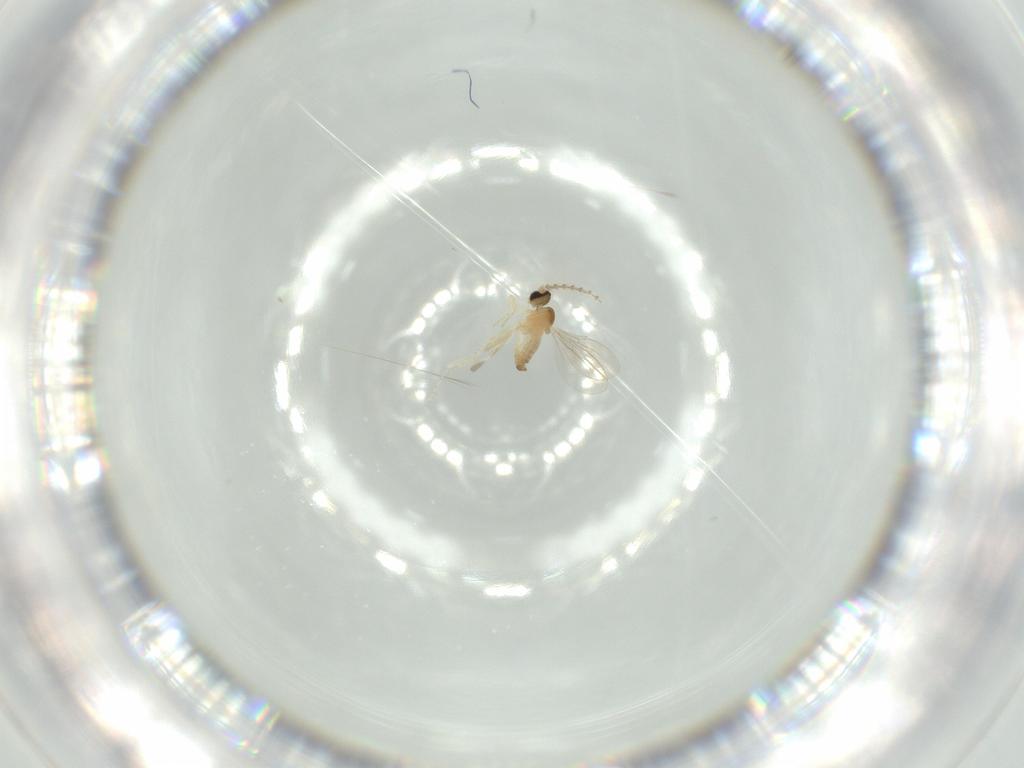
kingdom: Animalia
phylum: Arthropoda
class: Insecta
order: Diptera
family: Cecidomyiidae
